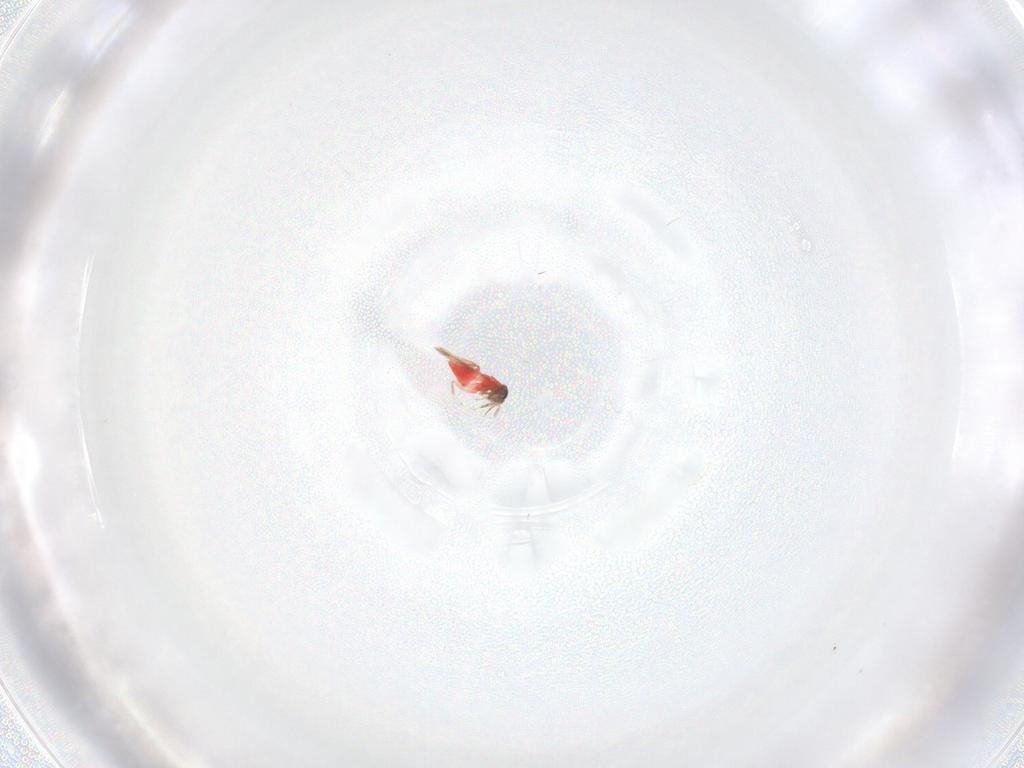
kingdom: Animalia
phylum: Arthropoda
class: Insecta
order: Hymenoptera
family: Trichogrammatidae
